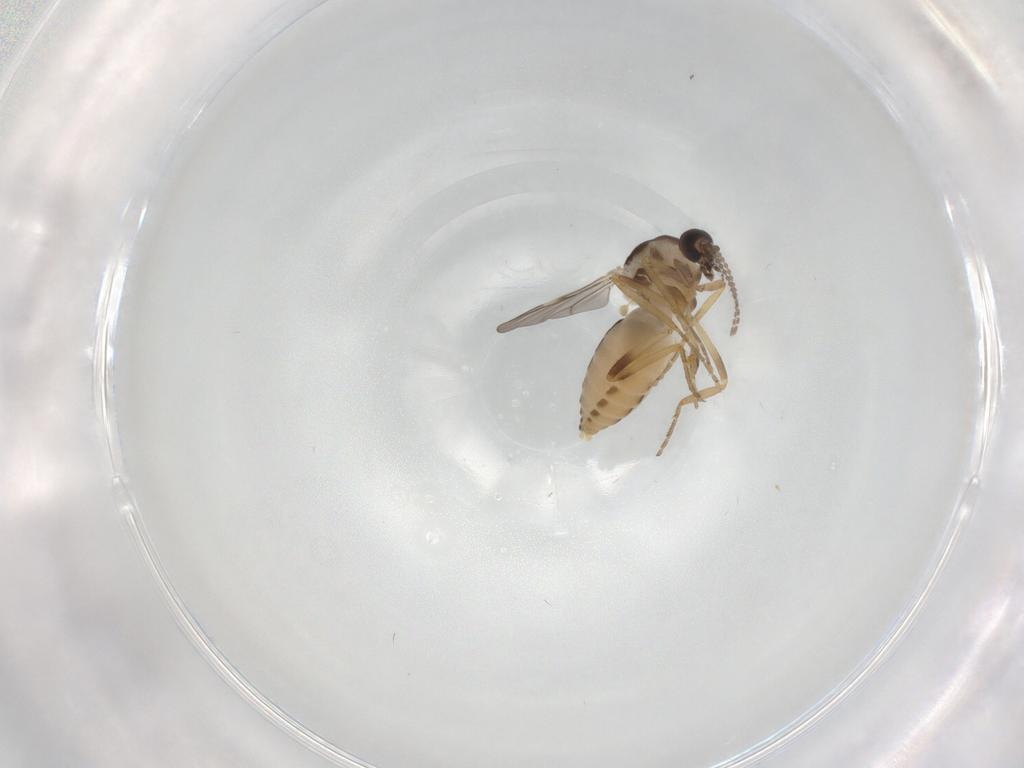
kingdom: Animalia
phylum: Arthropoda
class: Insecta
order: Diptera
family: Ceratopogonidae
